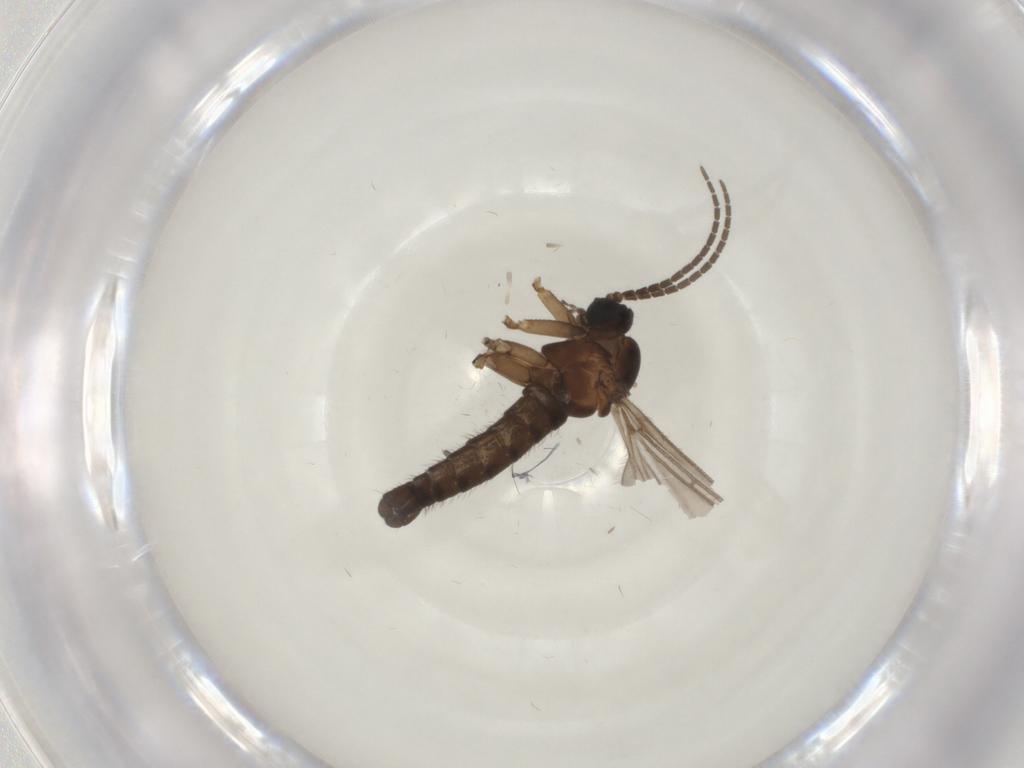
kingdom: Animalia
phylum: Arthropoda
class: Insecta
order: Diptera
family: Sciaridae
